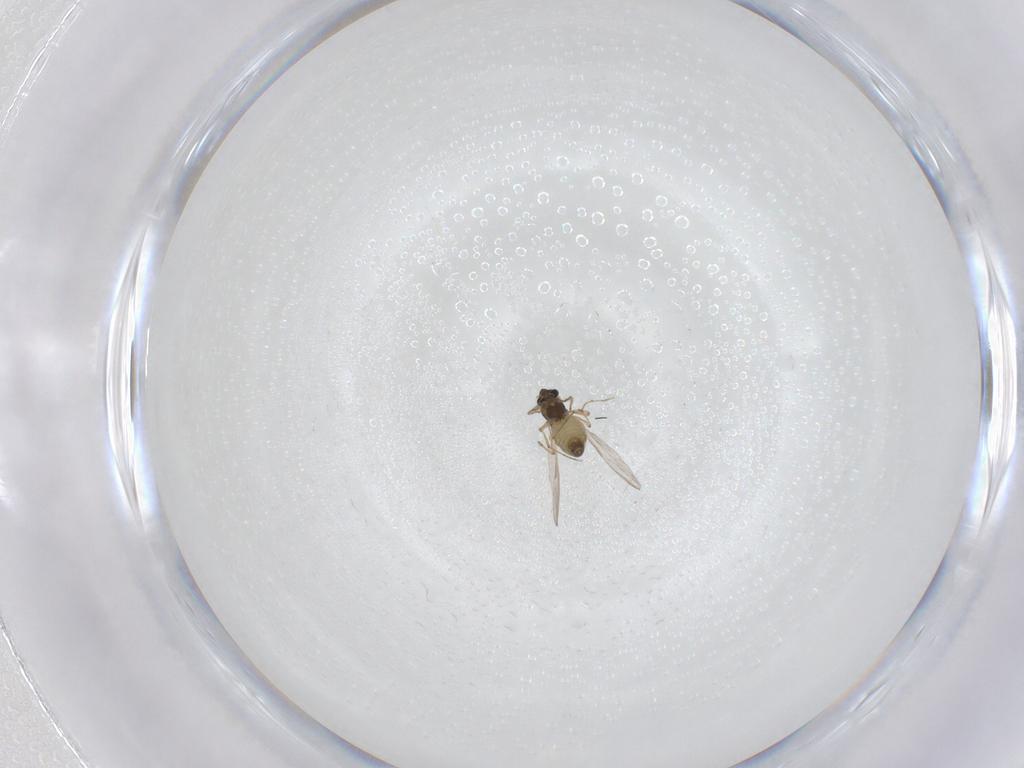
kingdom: Animalia
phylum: Arthropoda
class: Insecta
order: Diptera
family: Chironomidae
